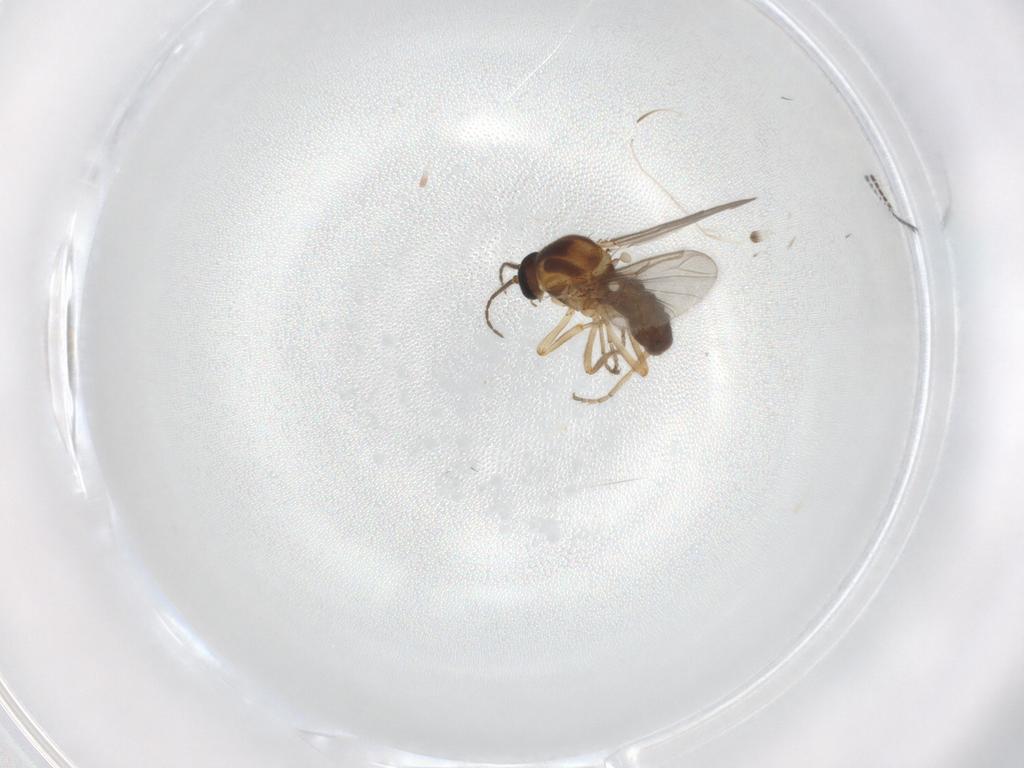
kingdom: Animalia
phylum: Arthropoda
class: Insecta
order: Diptera
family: Ceratopogonidae
